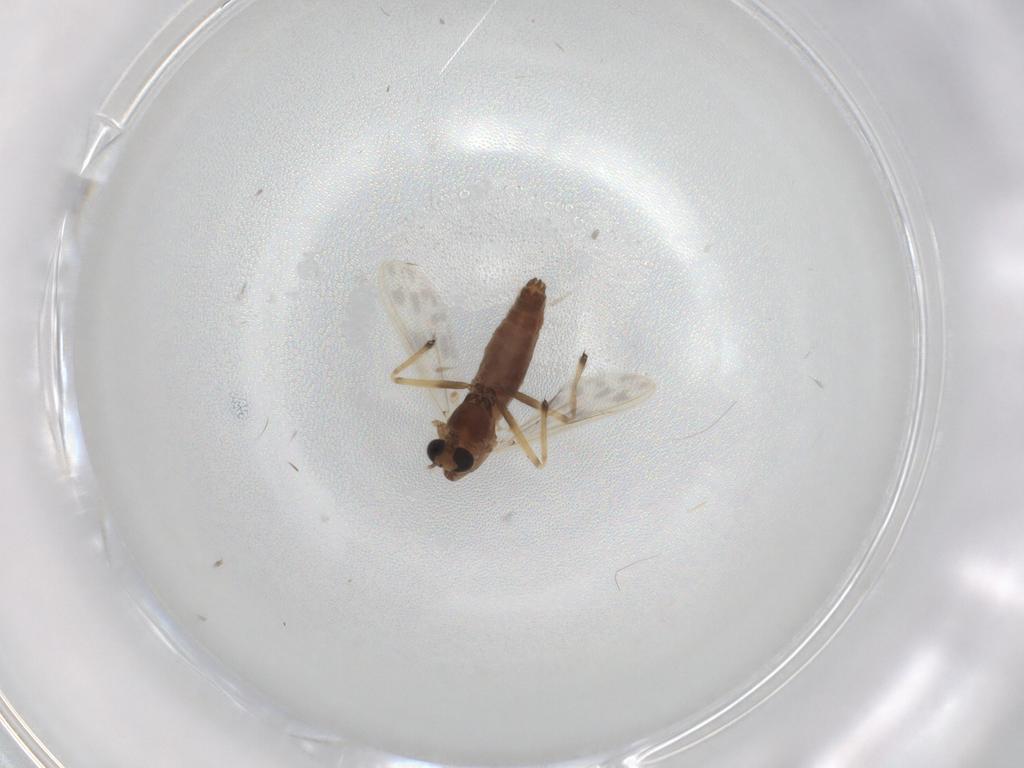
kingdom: Animalia
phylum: Arthropoda
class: Insecta
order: Diptera
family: Chironomidae
